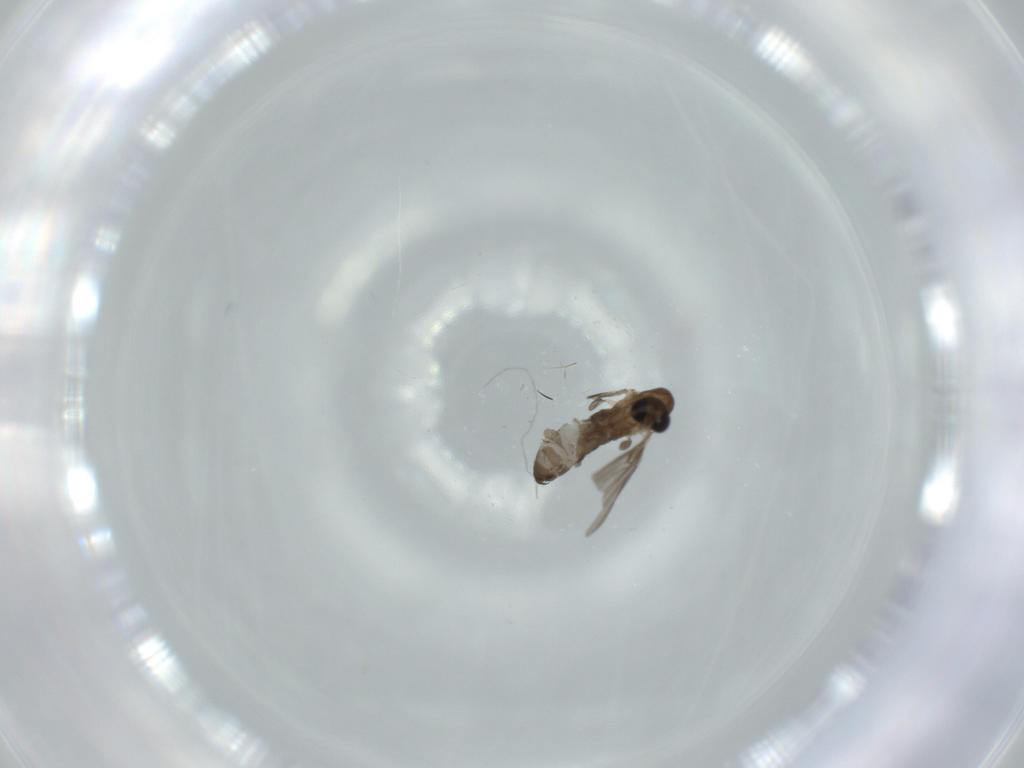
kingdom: Animalia
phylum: Arthropoda
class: Insecta
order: Diptera
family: Psychodidae
